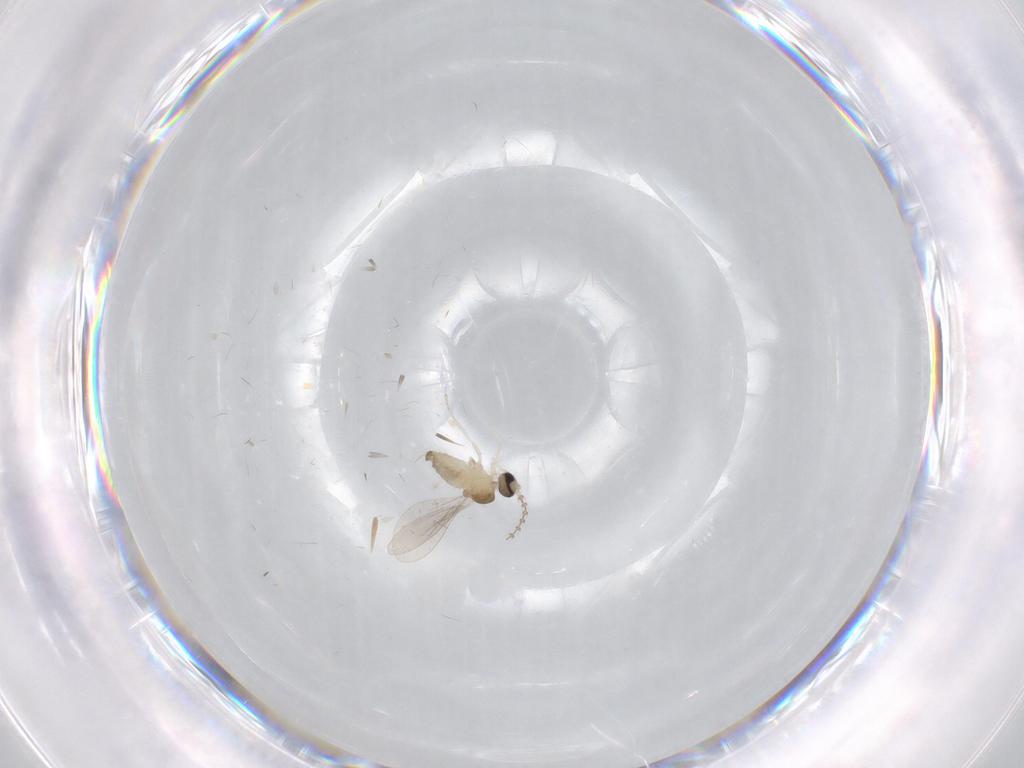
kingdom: Animalia
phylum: Arthropoda
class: Insecta
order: Diptera
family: Cecidomyiidae
